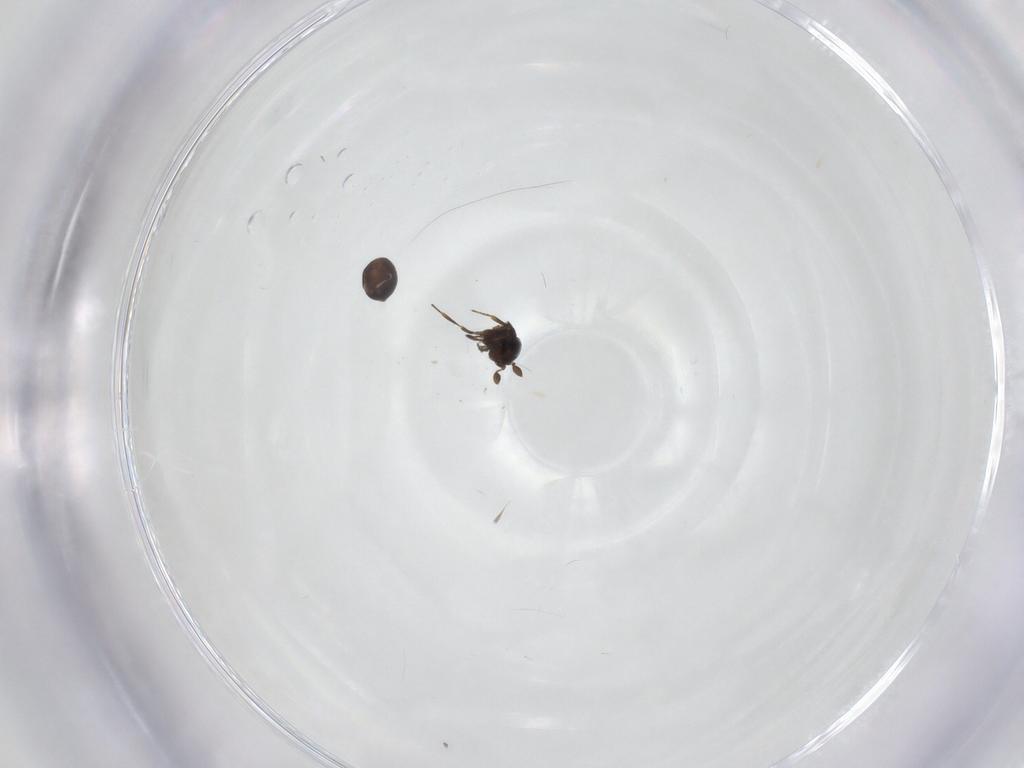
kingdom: Animalia
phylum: Arthropoda
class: Insecta
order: Hymenoptera
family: Scelionidae
